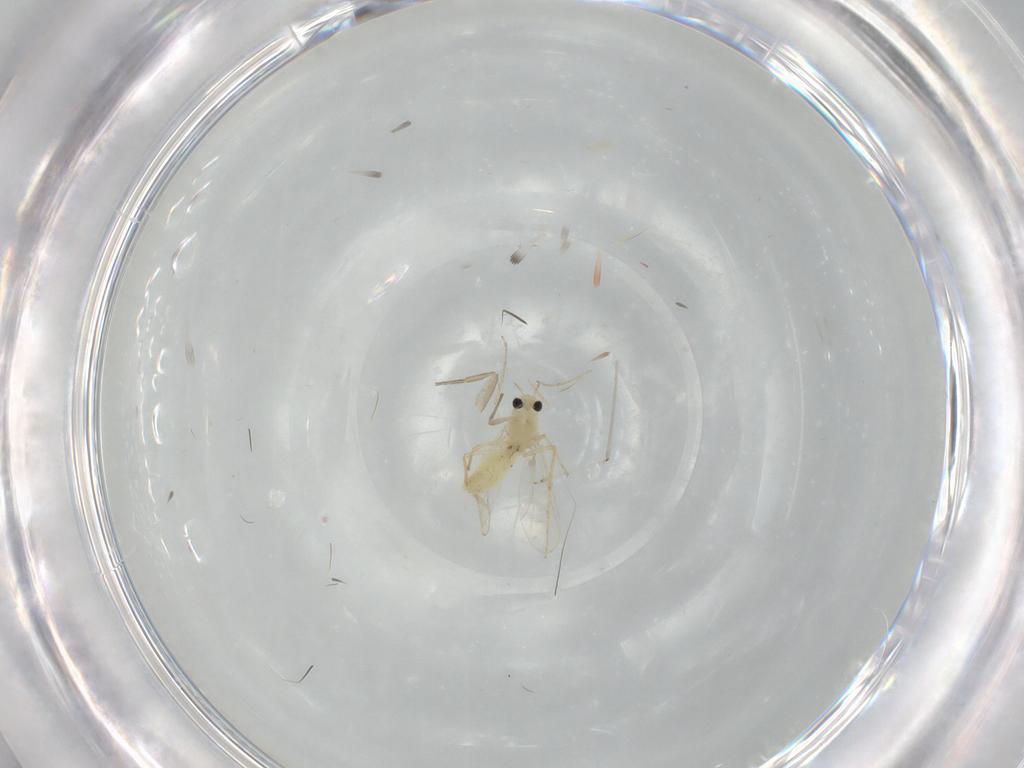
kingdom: Animalia
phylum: Arthropoda
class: Insecta
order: Diptera
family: Chironomidae
